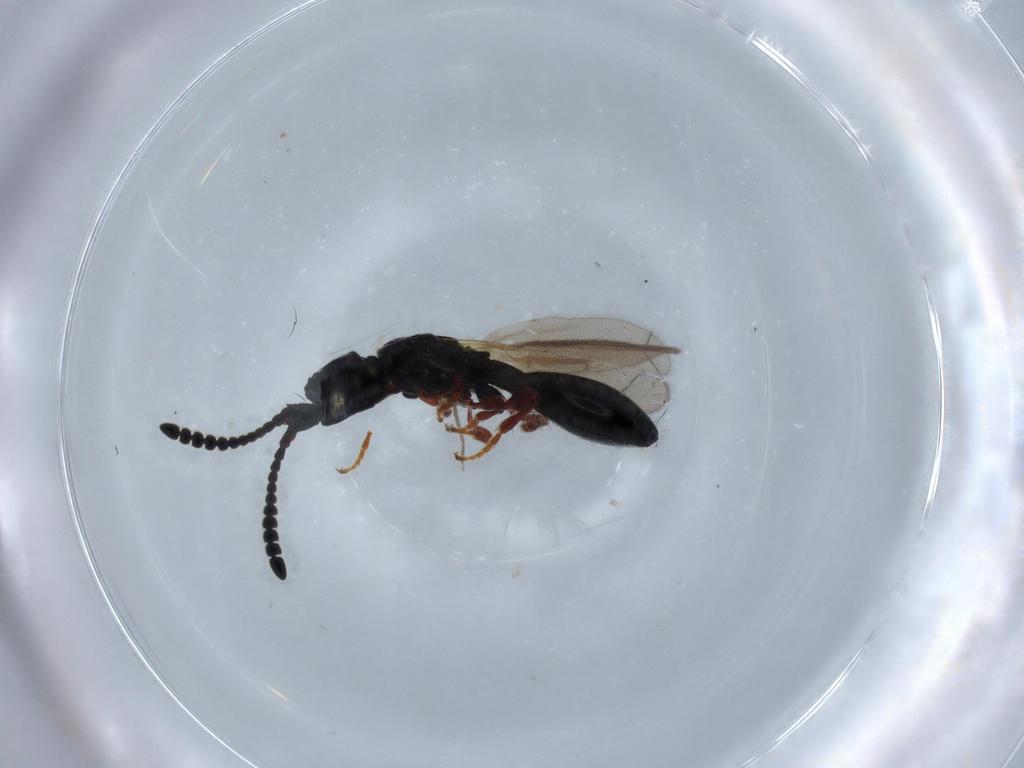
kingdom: Animalia
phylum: Arthropoda
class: Insecta
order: Hymenoptera
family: Diapriidae
